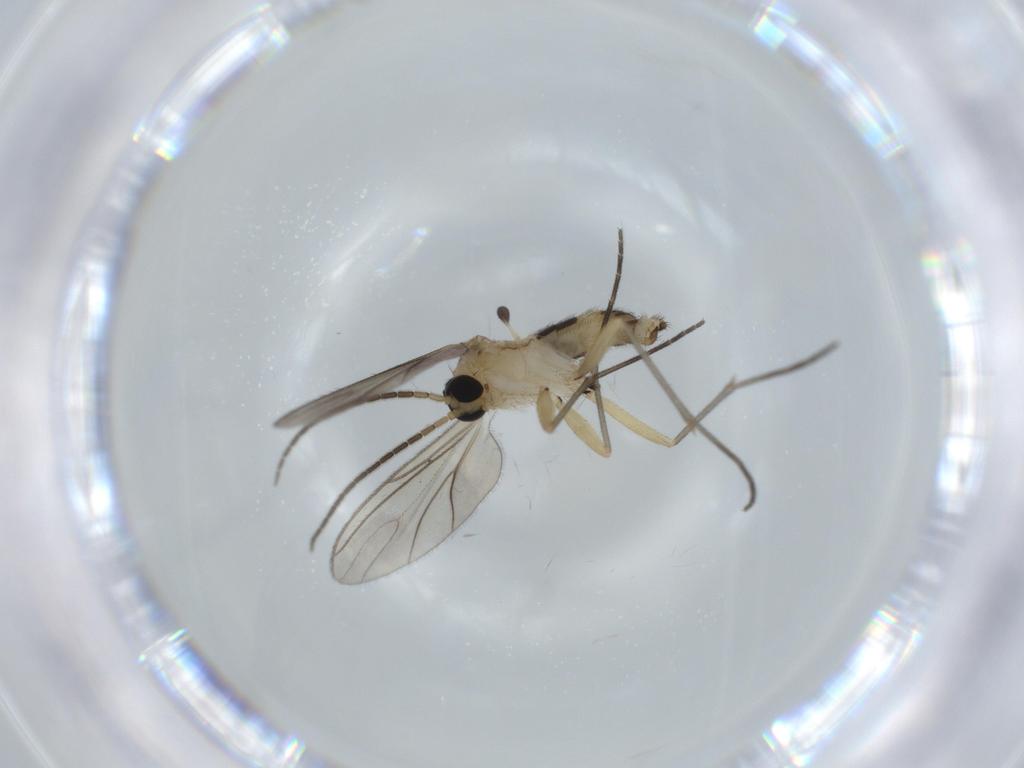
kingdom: Animalia
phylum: Arthropoda
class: Insecta
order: Diptera
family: Sciaridae
